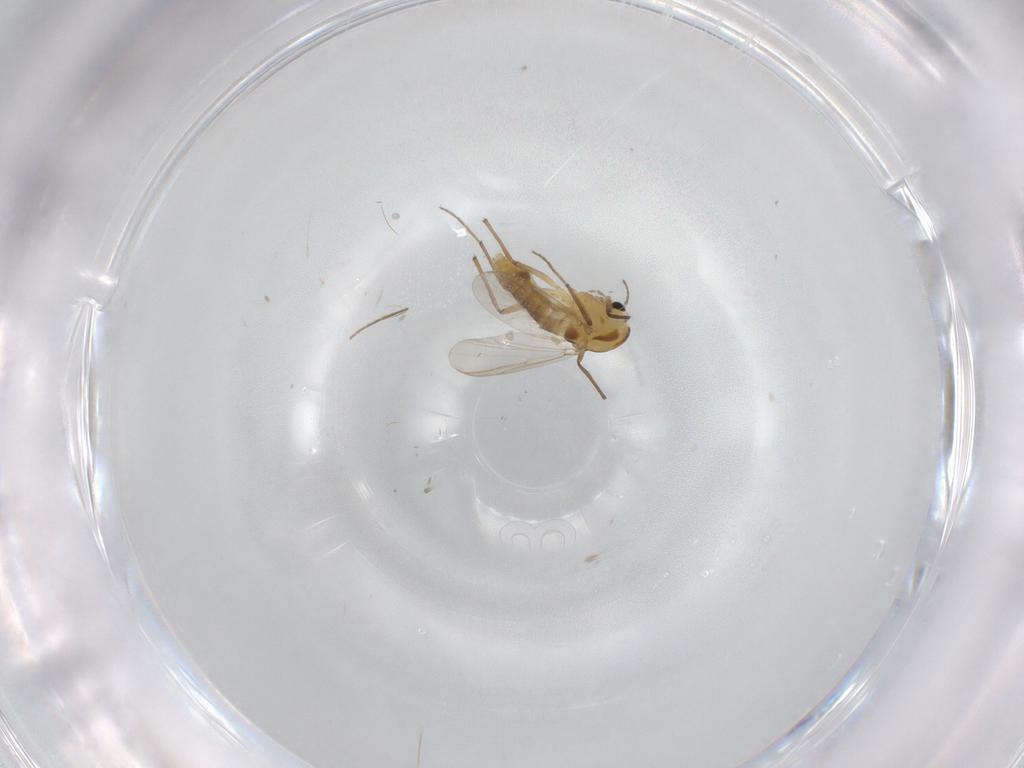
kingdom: Animalia
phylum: Arthropoda
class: Insecta
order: Diptera
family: Chironomidae
